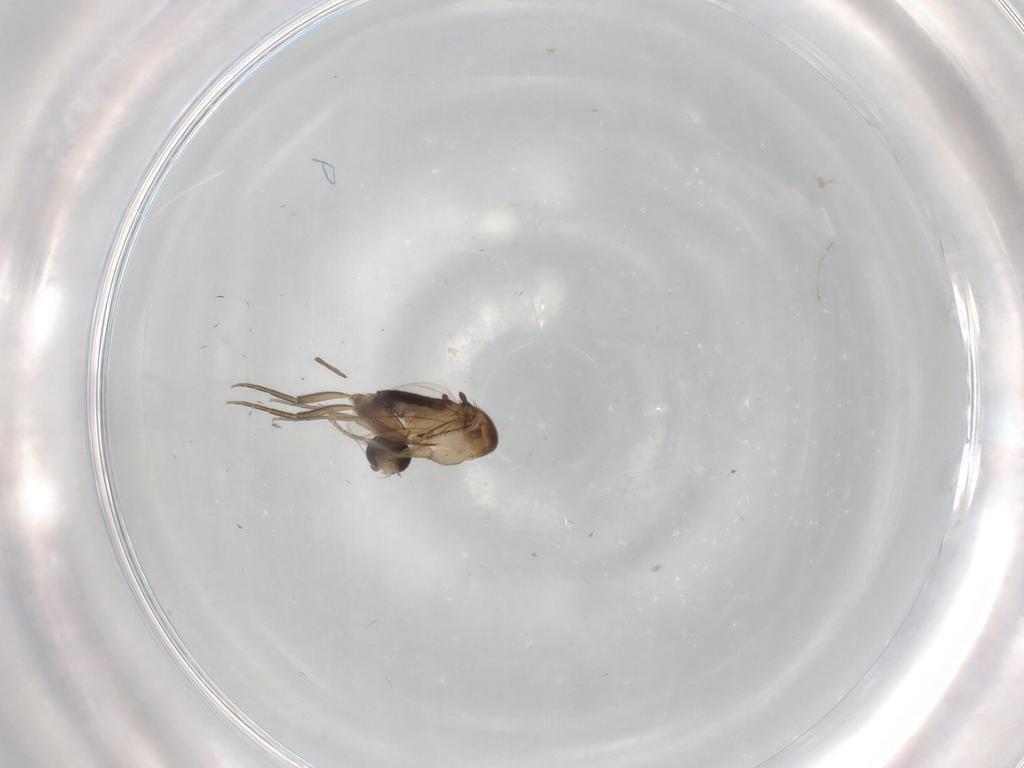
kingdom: Animalia
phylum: Arthropoda
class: Insecta
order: Diptera
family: Phoridae
